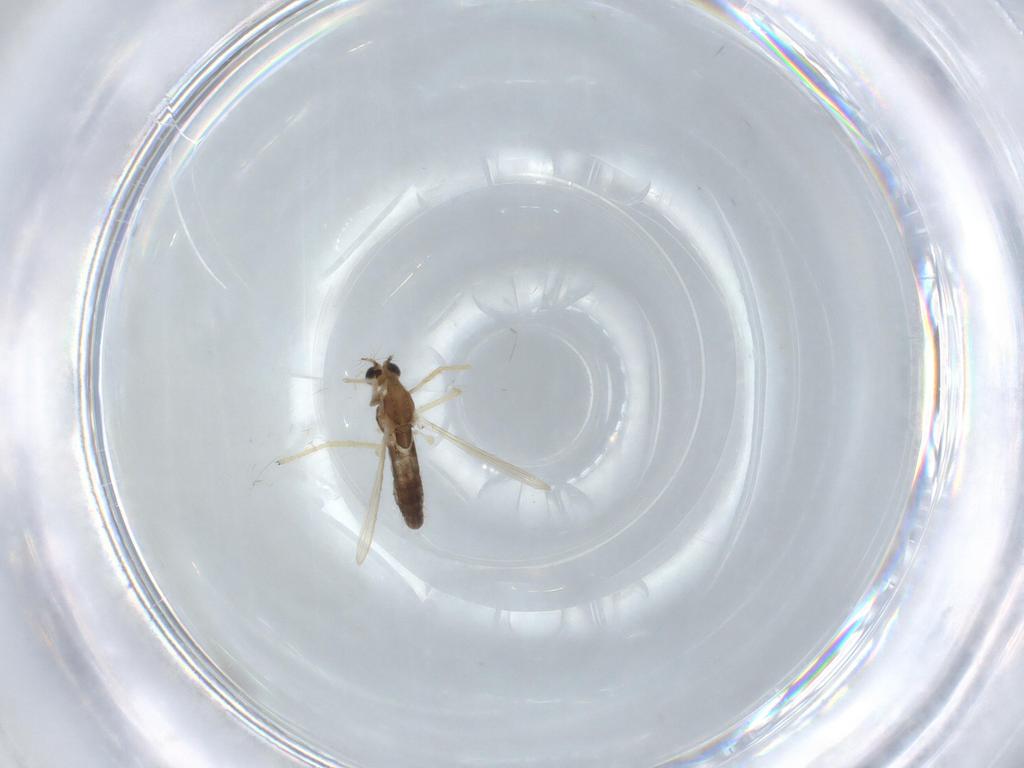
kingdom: Animalia
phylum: Arthropoda
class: Insecta
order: Diptera
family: Chironomidae
